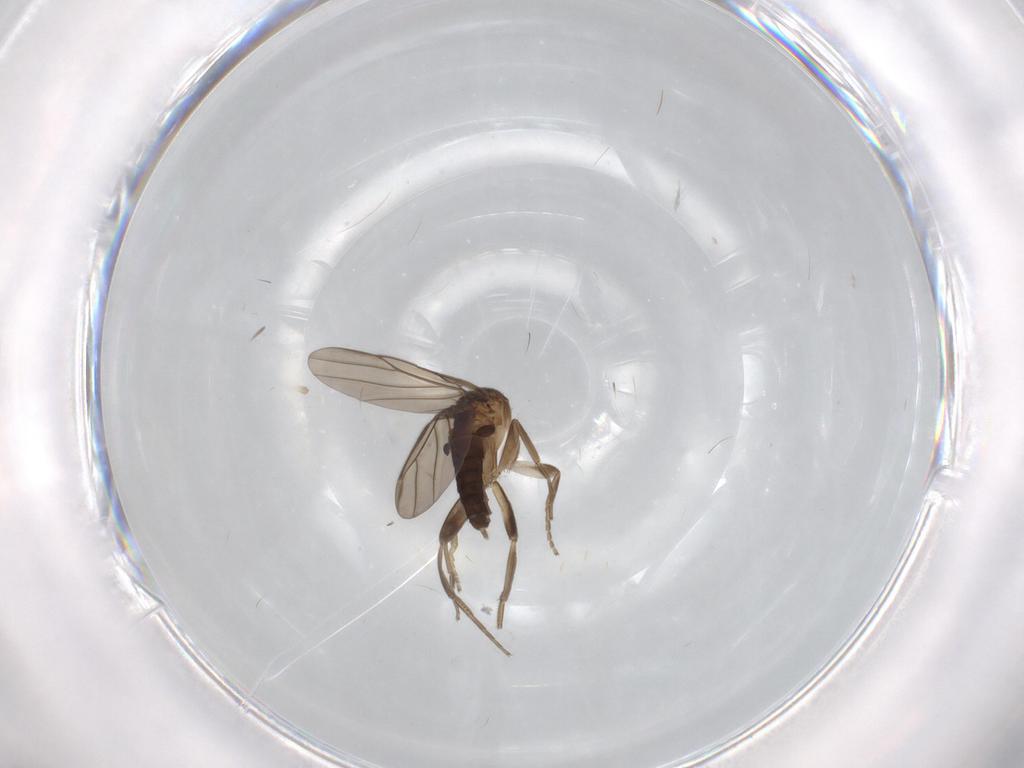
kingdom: Animalia
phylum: Arthropoda
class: Insecta
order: Diptera
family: Phoridae
